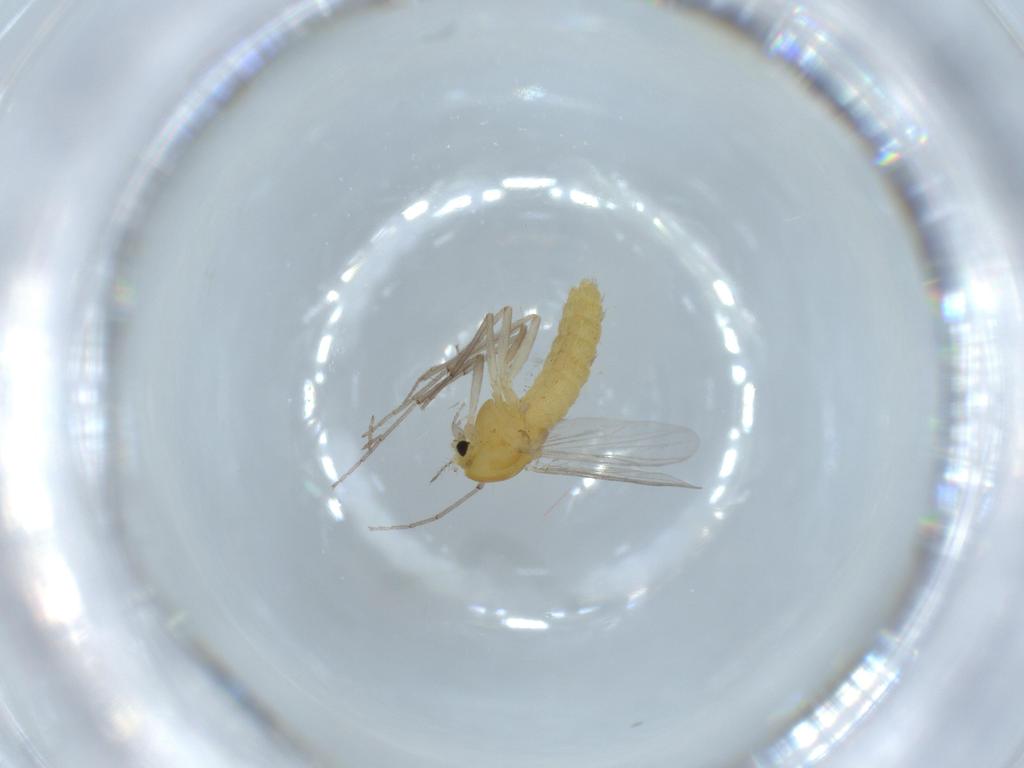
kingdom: Animalia
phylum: Arthropoda
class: Insecta
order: Diptera
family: Chironomidae
